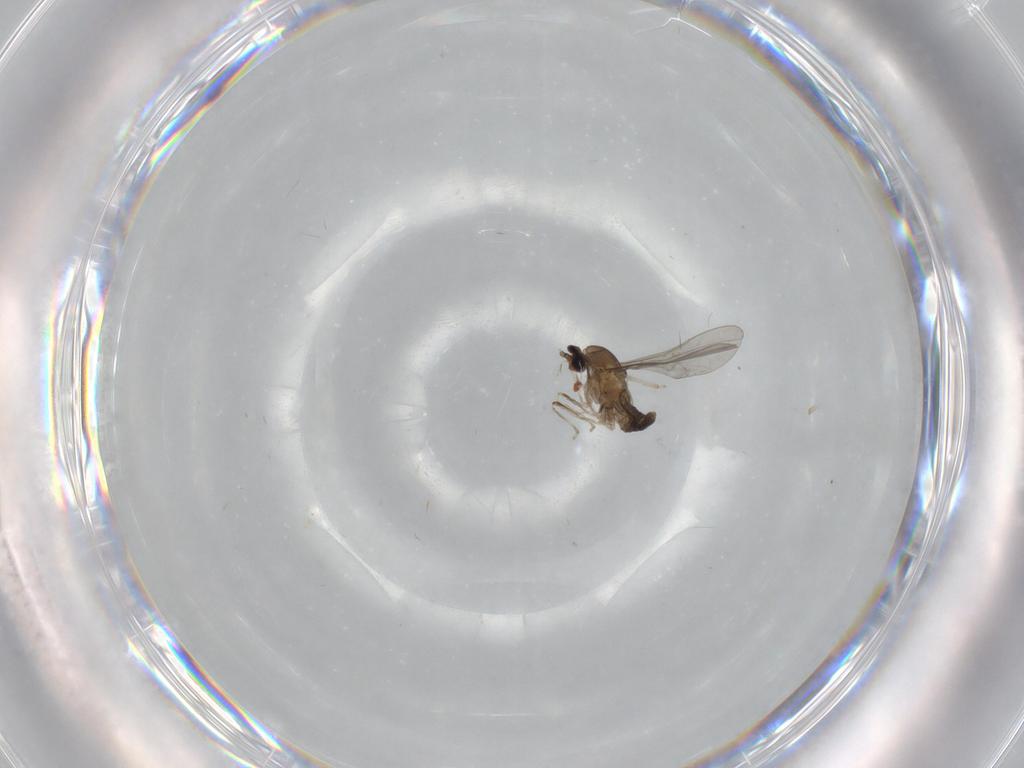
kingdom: Animalia
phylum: Arthropoda
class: Insecta
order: Diptera
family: Cecidomyiidae
